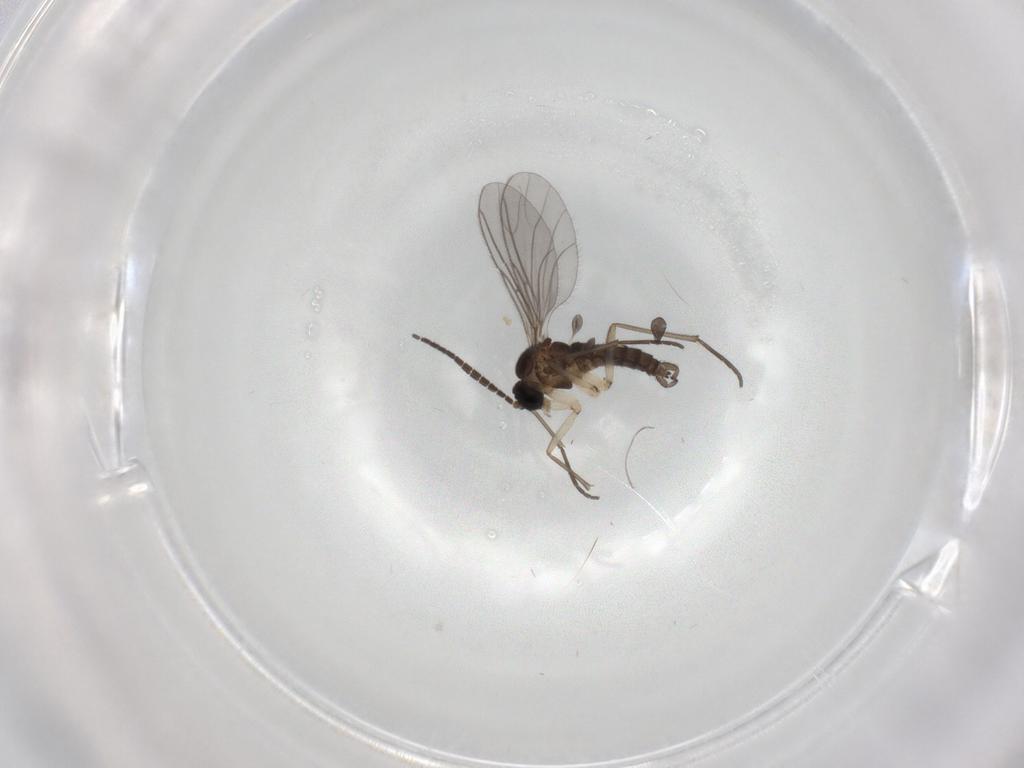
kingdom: Animalia
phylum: Arthropoda
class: Insecta
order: Diptera
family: Sciaridae
